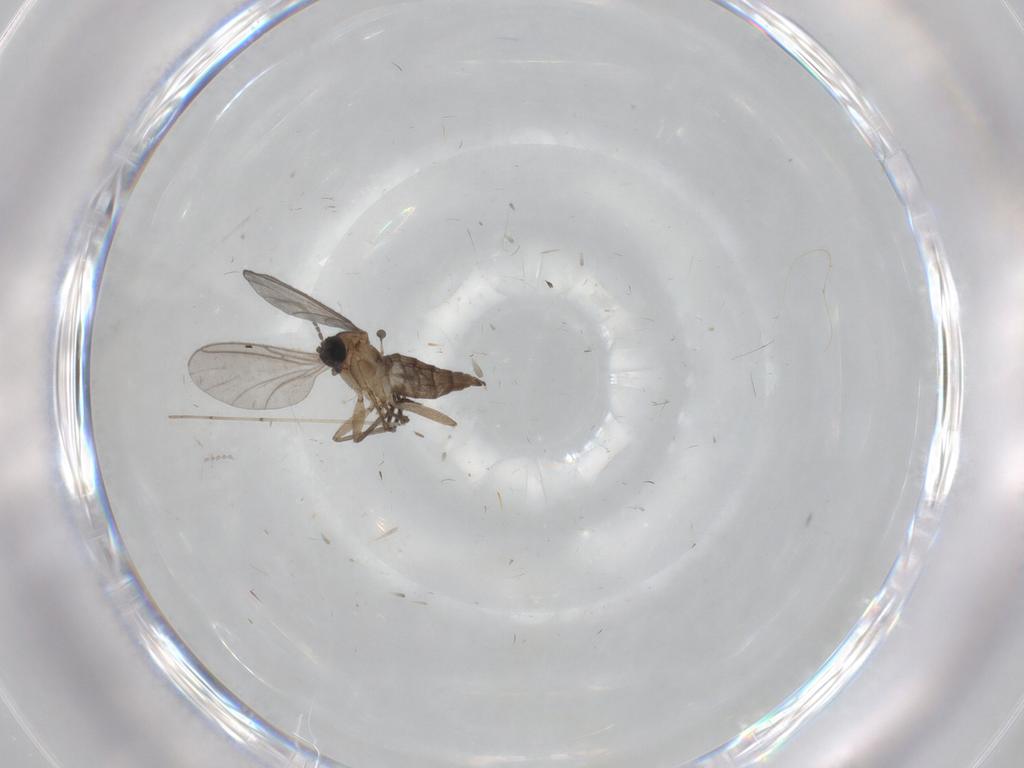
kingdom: Animalia
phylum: Arthropoda
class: Insecta
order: Diptera
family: Sciaridae
